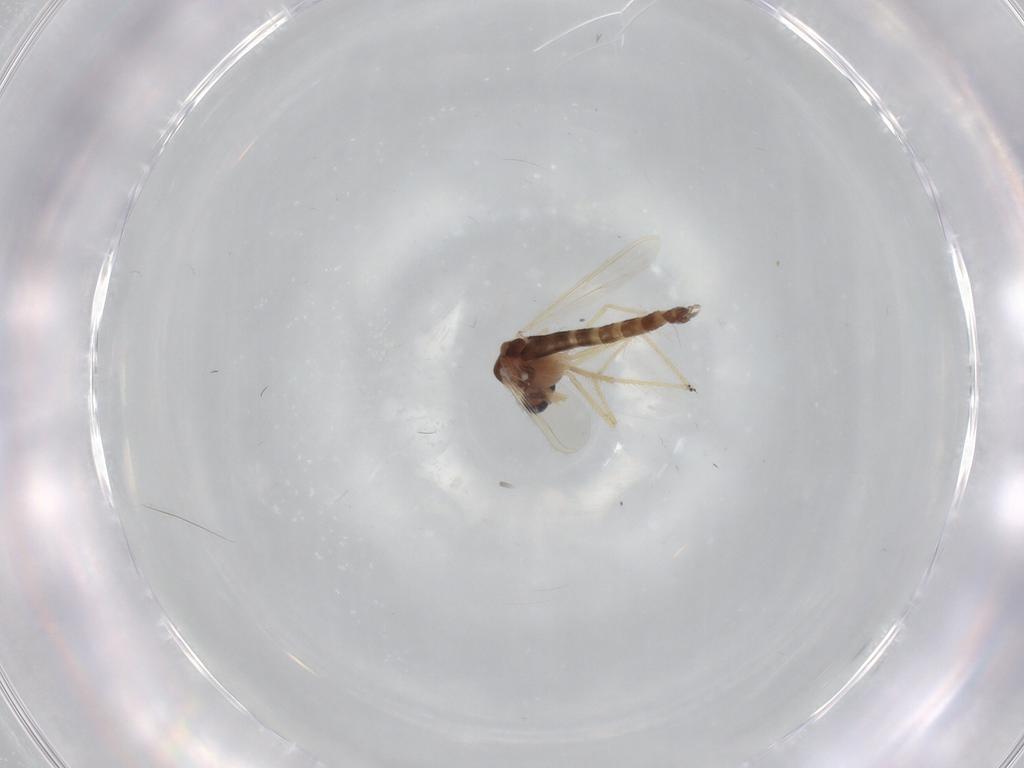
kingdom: Animalia
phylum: Arthropoda
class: Insecta
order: Diptera
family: Chironomidae
